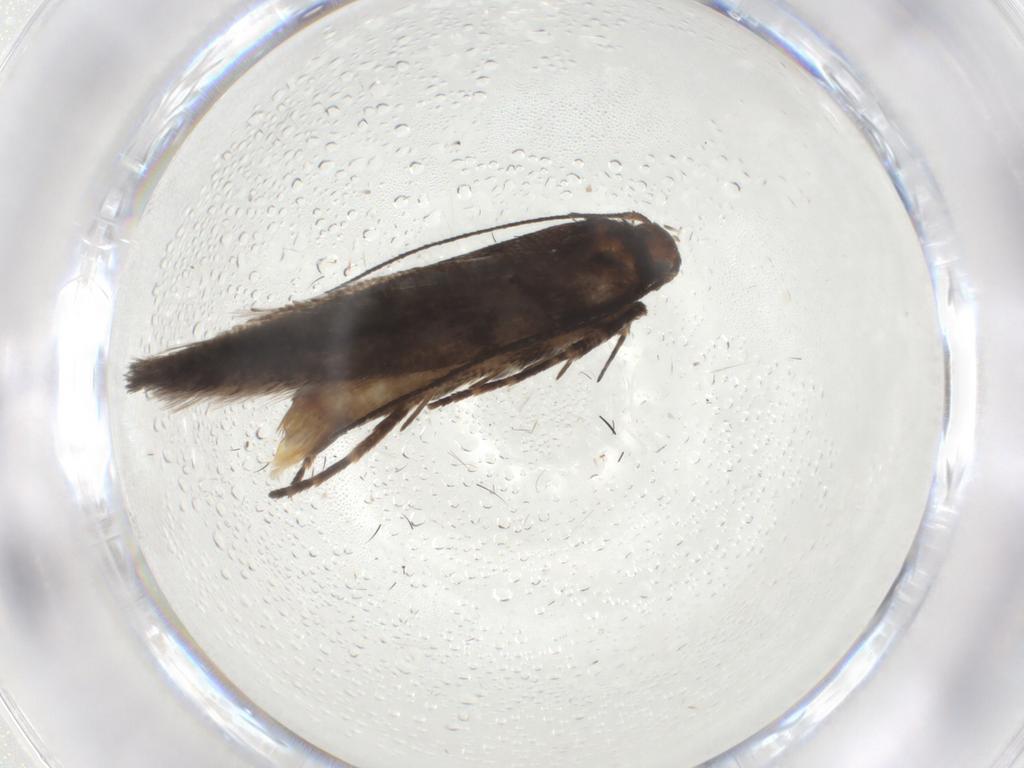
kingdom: Animalia
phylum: Arthropoda
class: Insecta
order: Lepidoptera
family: Gelechiidae
